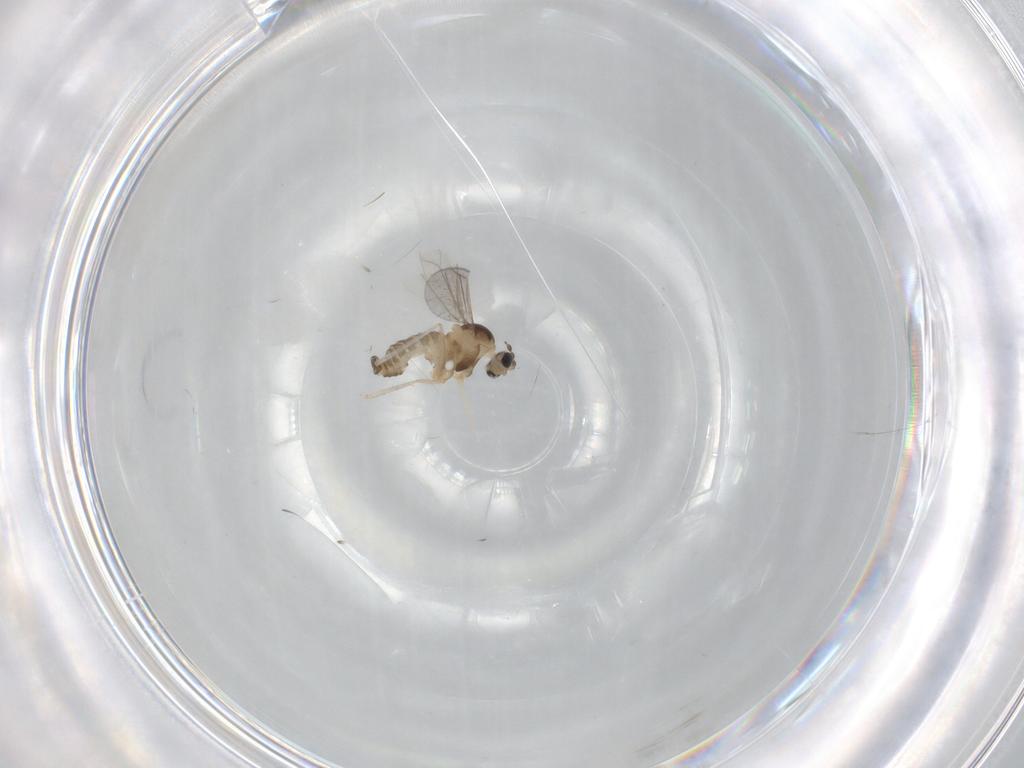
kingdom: Animalia
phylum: Arthropoda
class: Insecta
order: Diptera
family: Cecidomyiidae
